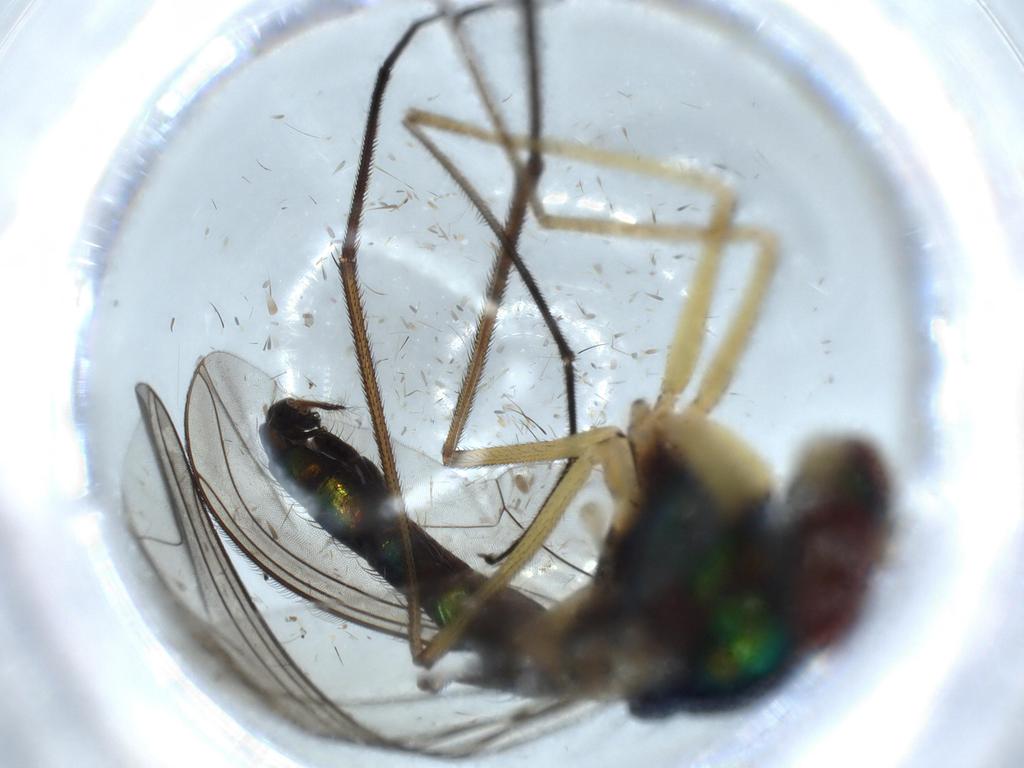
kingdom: Animalia
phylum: Arthropoda
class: Insecta
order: Diptera
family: Dolichopodidae
